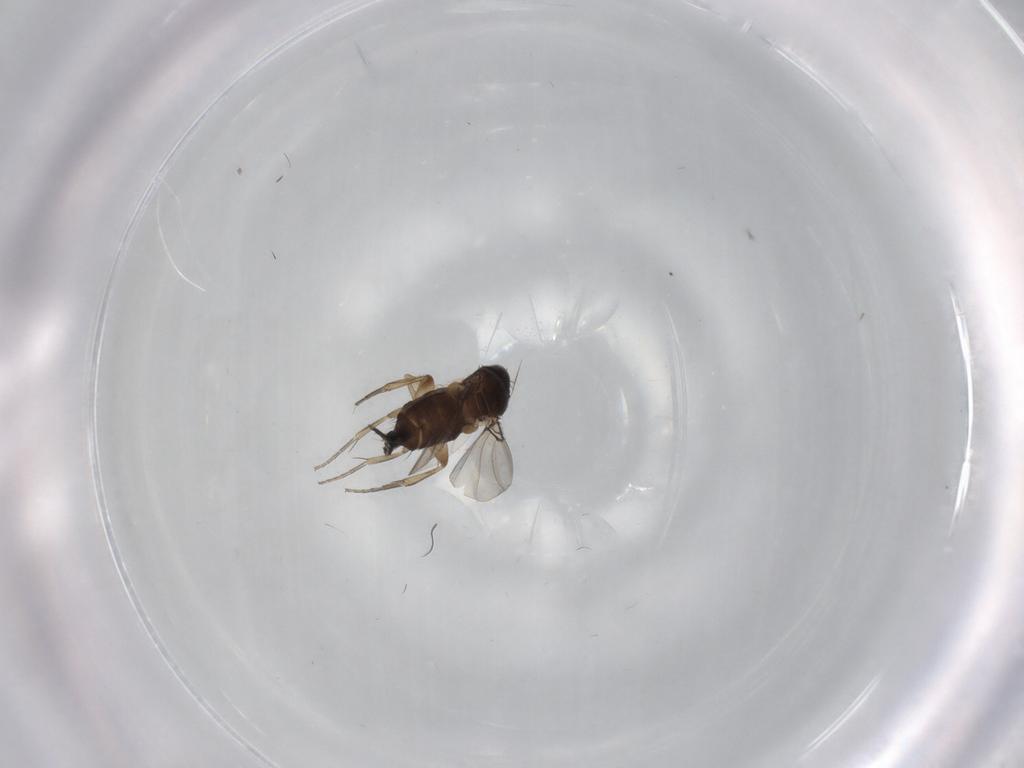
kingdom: Animalia
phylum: Arthropoda
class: Insecta
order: Diptera
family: Phoridae
